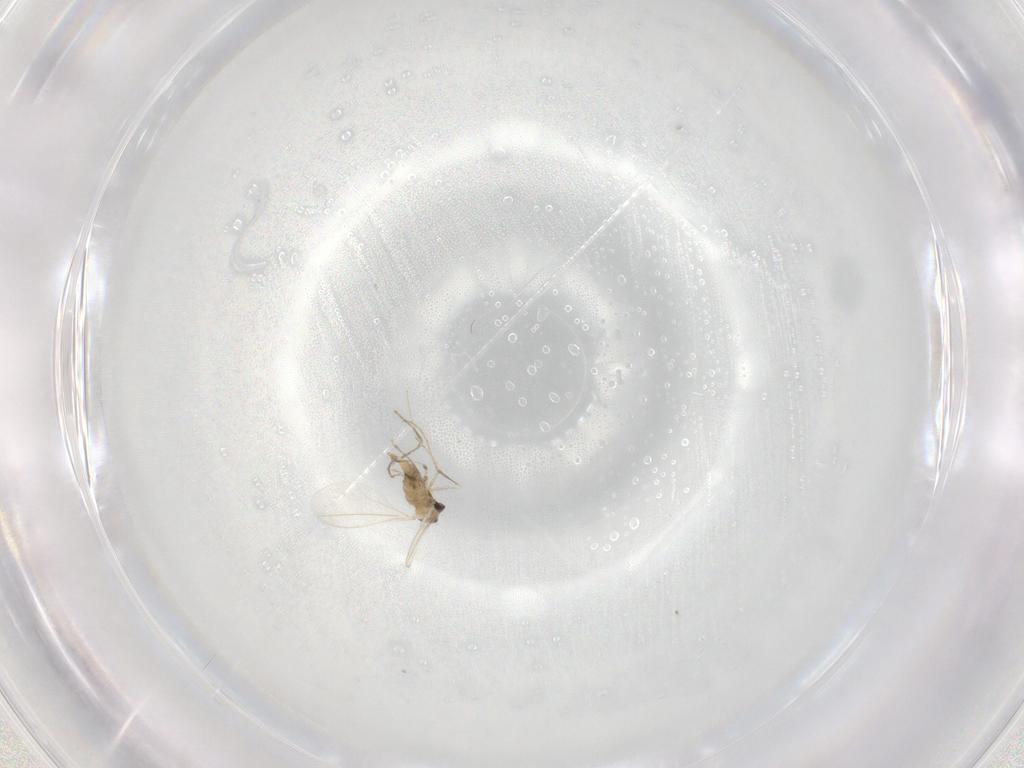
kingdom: Animalia
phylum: Arthropoda
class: Insecta
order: Diptera
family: Cecidomyiidae
